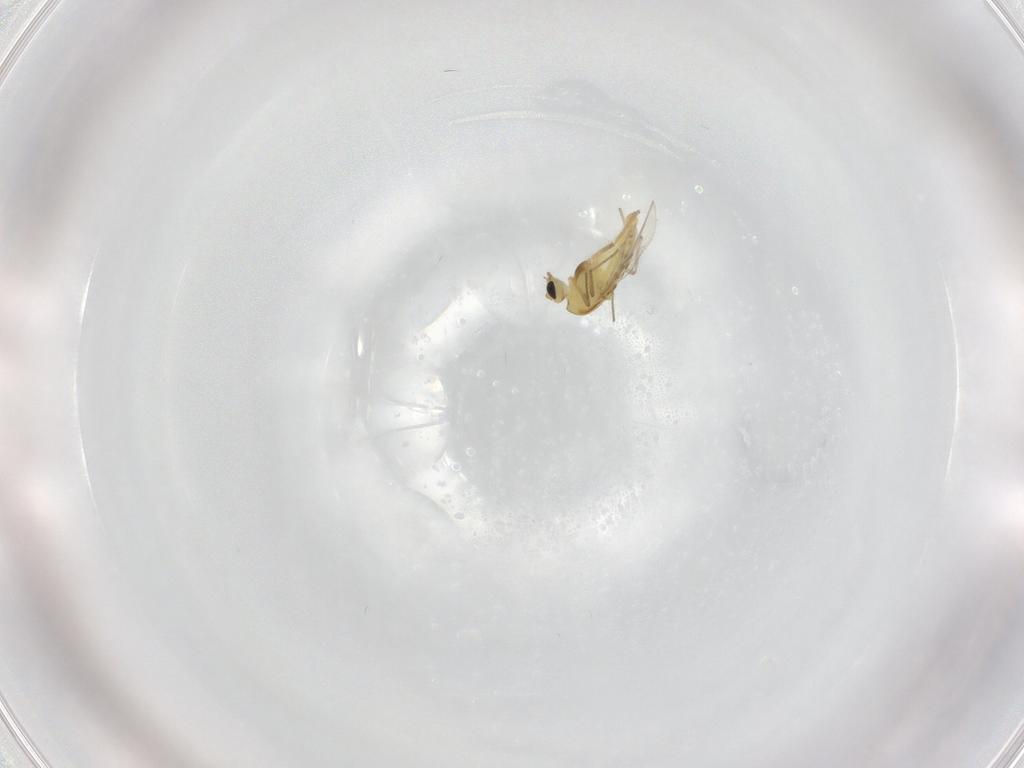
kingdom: Animalia
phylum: Arthropoda
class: Insecta
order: Diptera
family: Chironomidae
